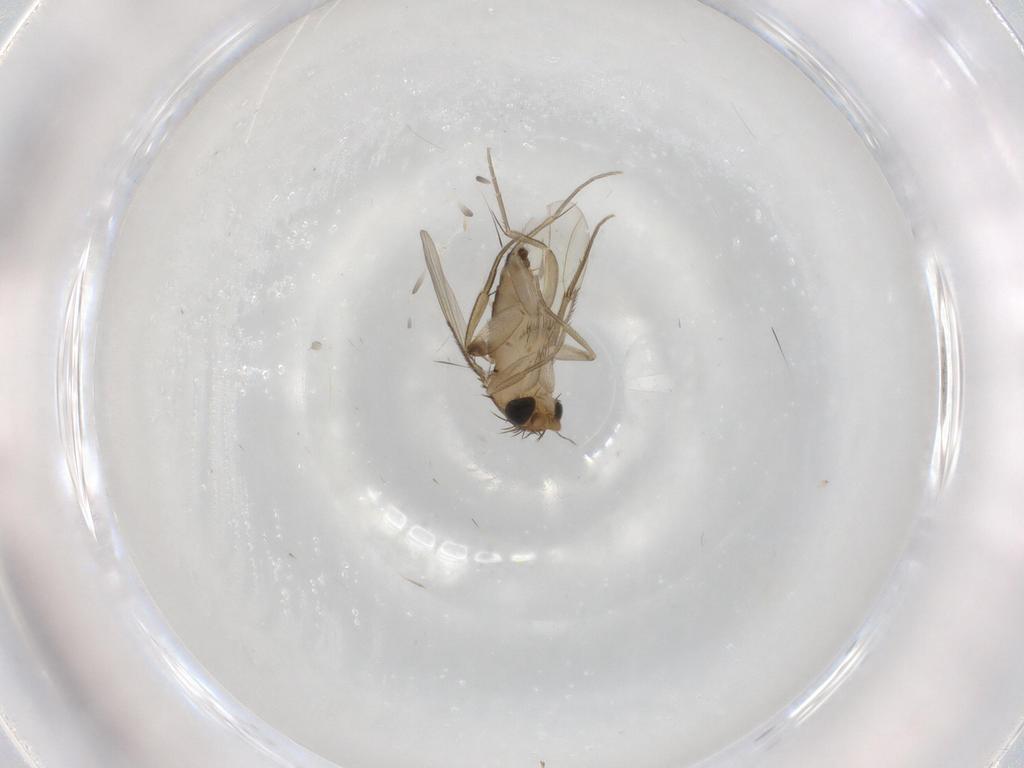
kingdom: Animalia
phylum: Arthropoda
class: Insecta
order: Diptera
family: Phoridae
